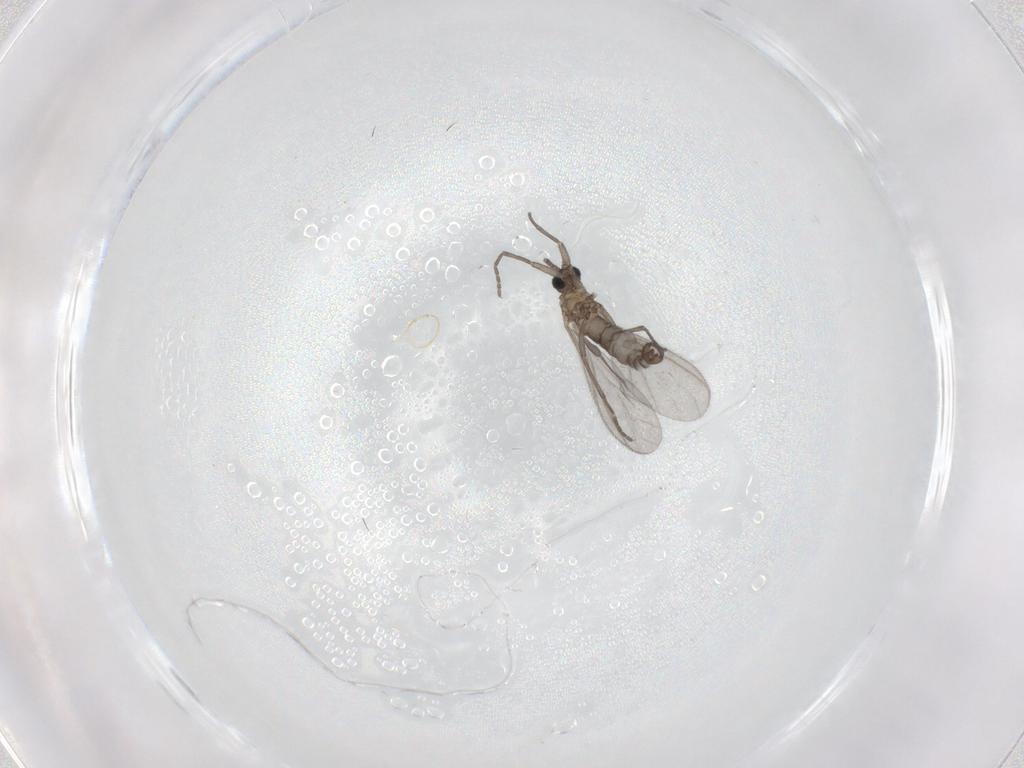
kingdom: Animalia
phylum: Arthropoda
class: Insecta
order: Diptera
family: Sciaridae
